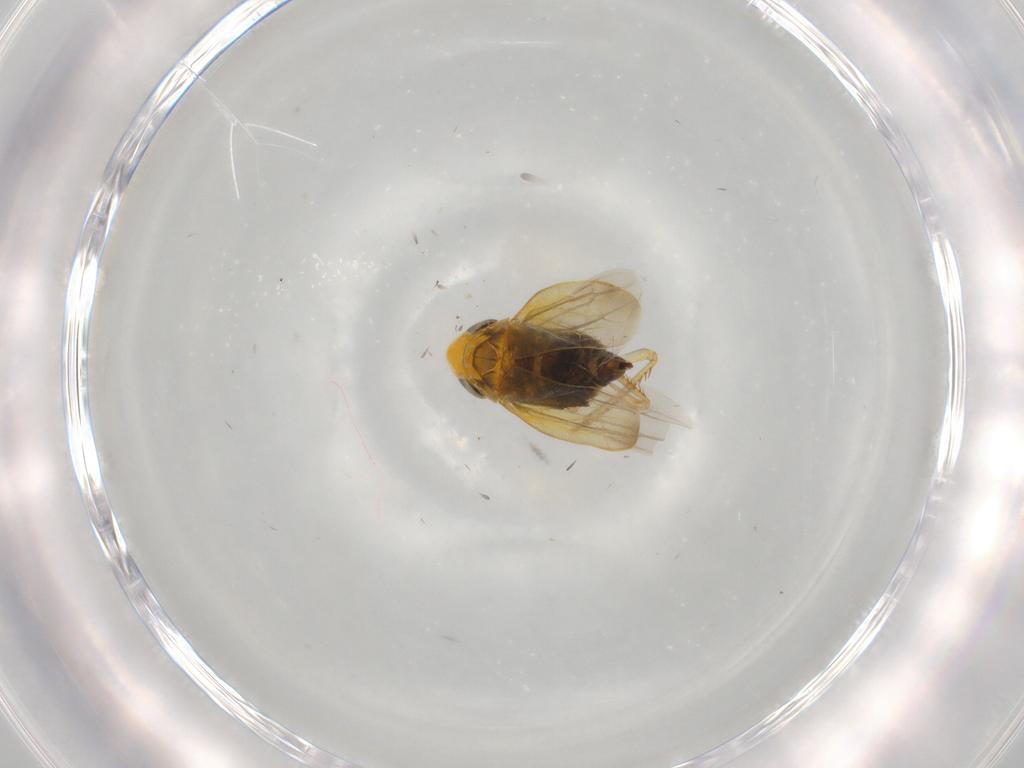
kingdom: Animalia
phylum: Arthropoda
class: Insecta
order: Hemiptera
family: Cicadellidae
